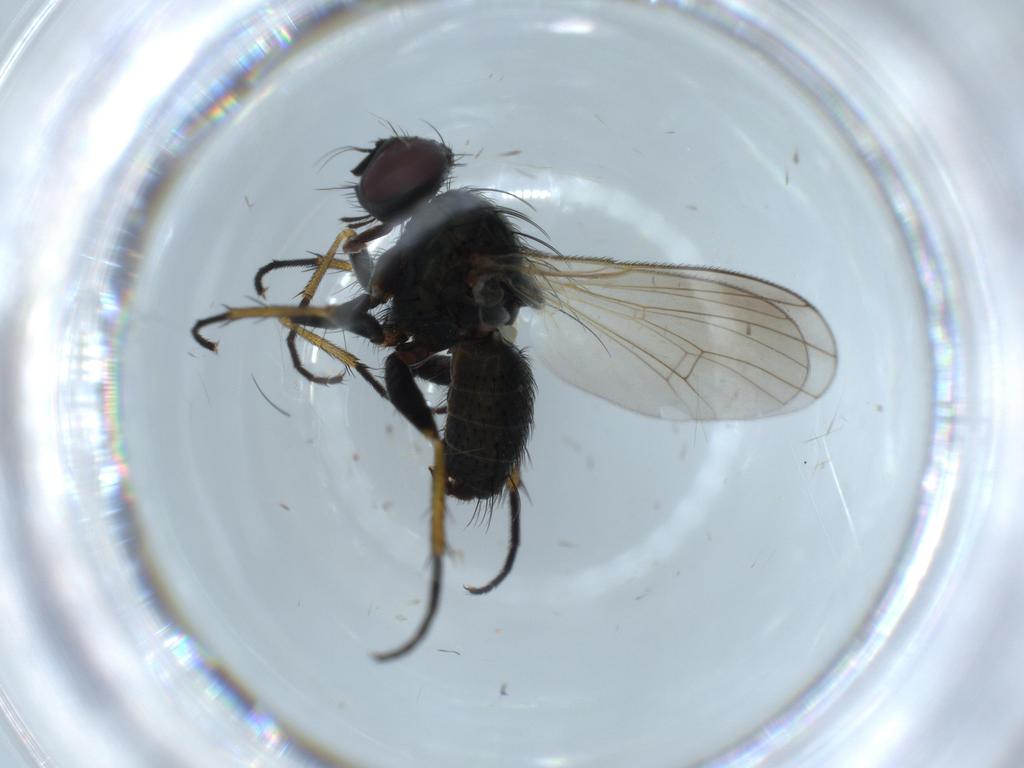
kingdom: Animalia
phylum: Arthropoda
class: Insecta
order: Diptera
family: Muscidae
